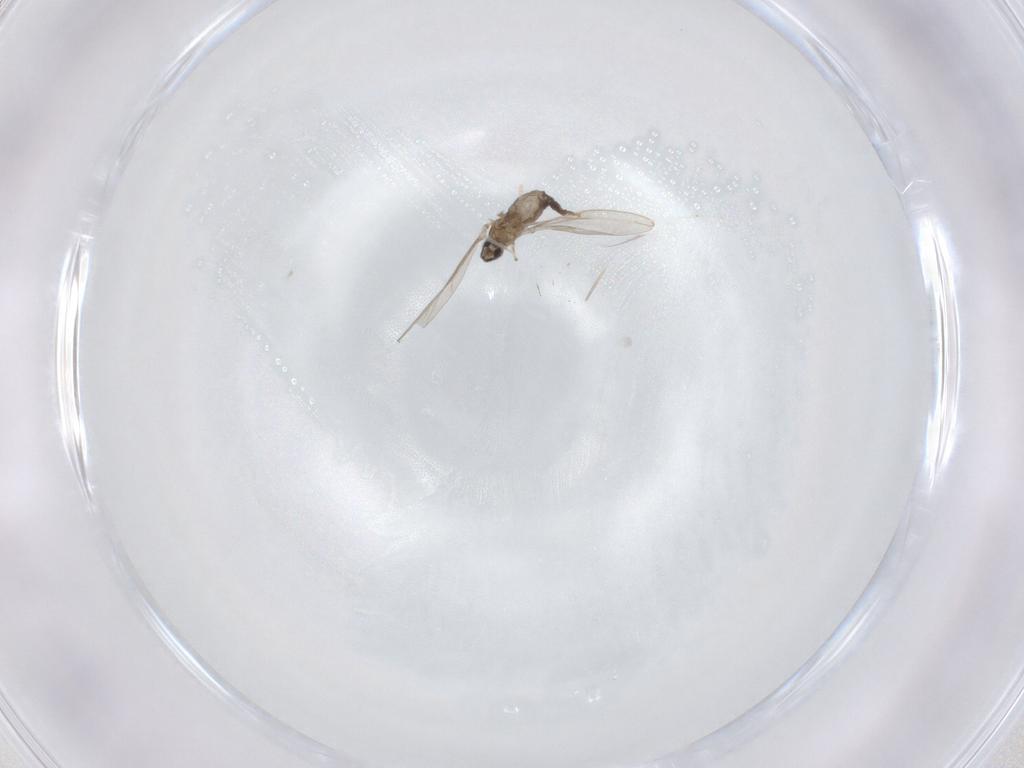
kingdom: Animalia
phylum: Arthropoda
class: Insecta
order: Diptera
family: Cecidomyiidae
